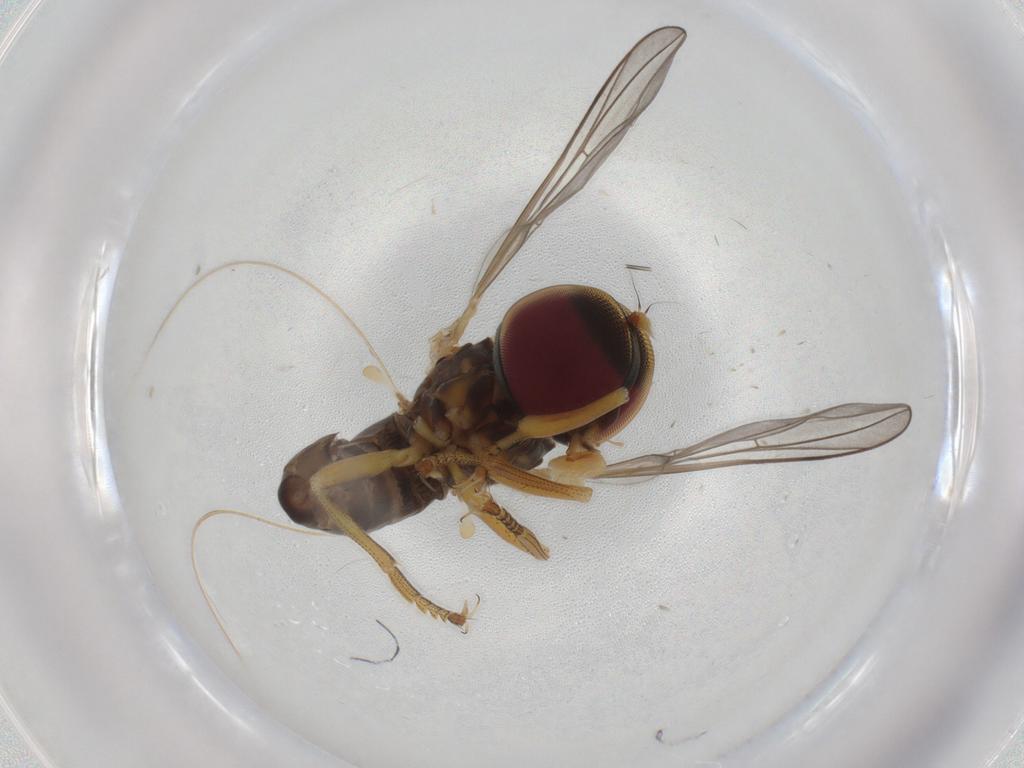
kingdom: Animalia
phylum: Arthropoda
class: Insecta
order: Diptera
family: Pipunculidae
